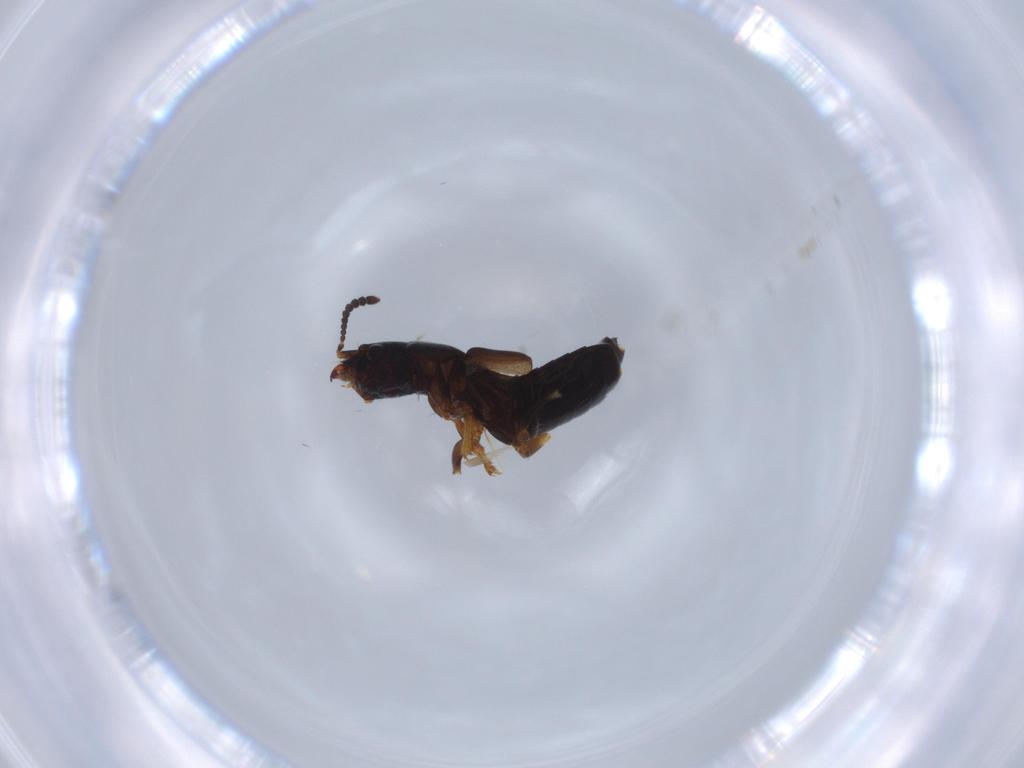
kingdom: Animalia
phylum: Arthropoda
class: Insecta
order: Coleoptera
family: Staphylinidae
